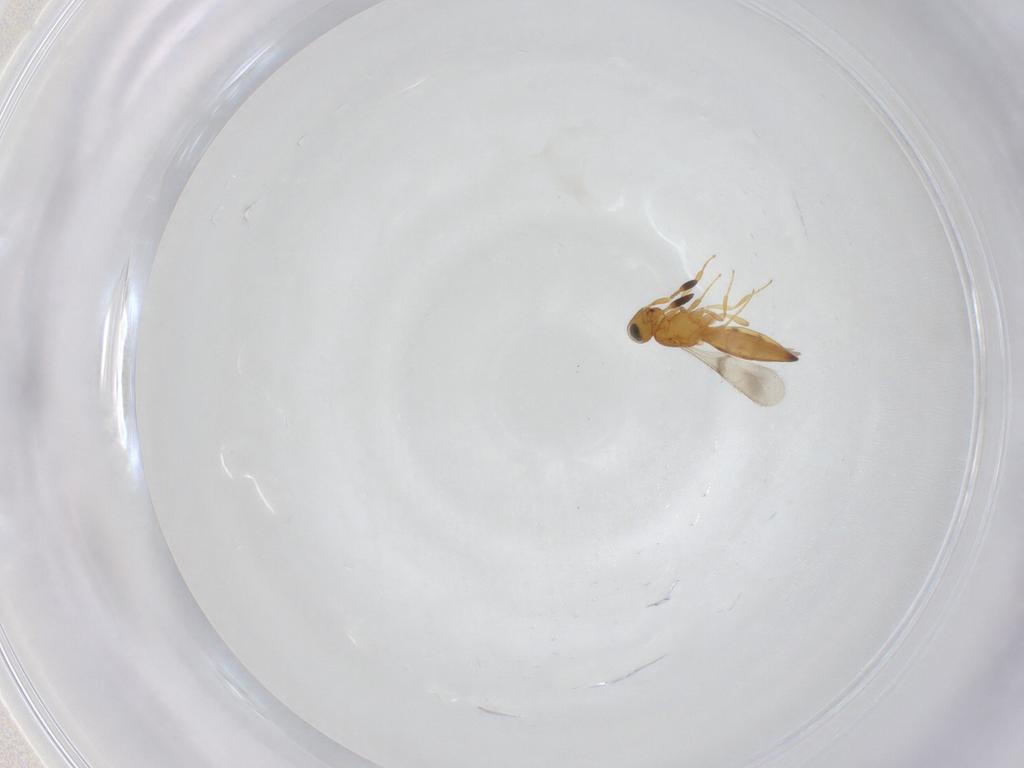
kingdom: Animalia
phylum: Arthropoda
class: Insecta
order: Hymenoptera
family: Scelionidae
